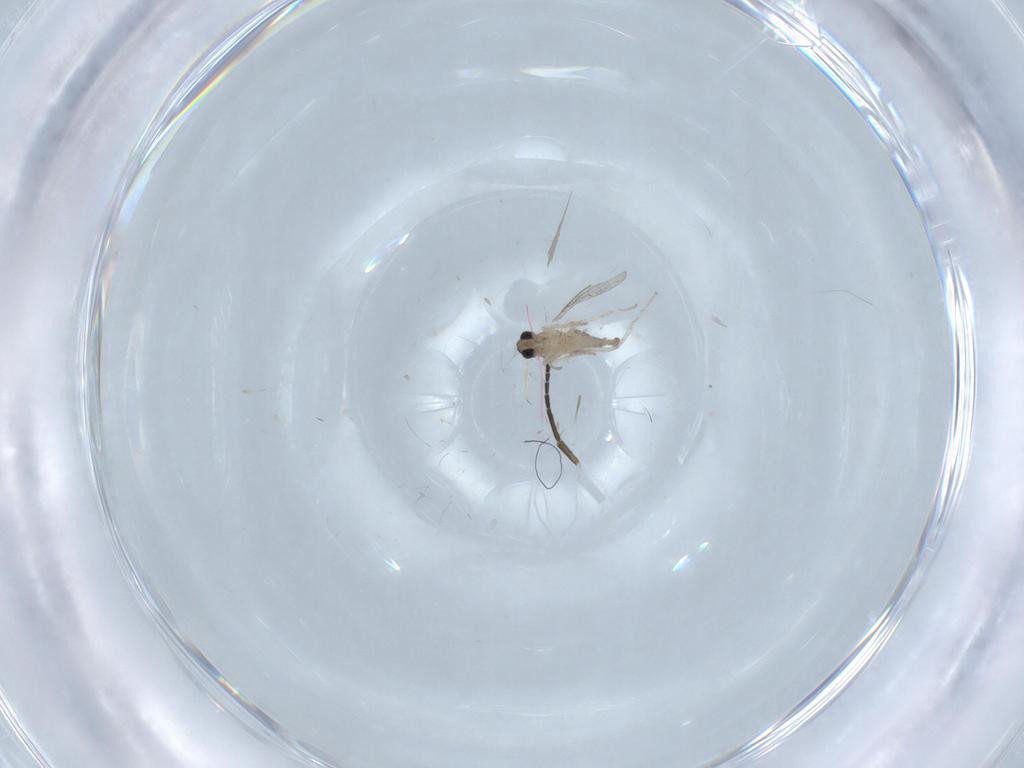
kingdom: Animalia
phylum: Arthropoda
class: Insecta
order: Diptera
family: Cecidomyiidae
